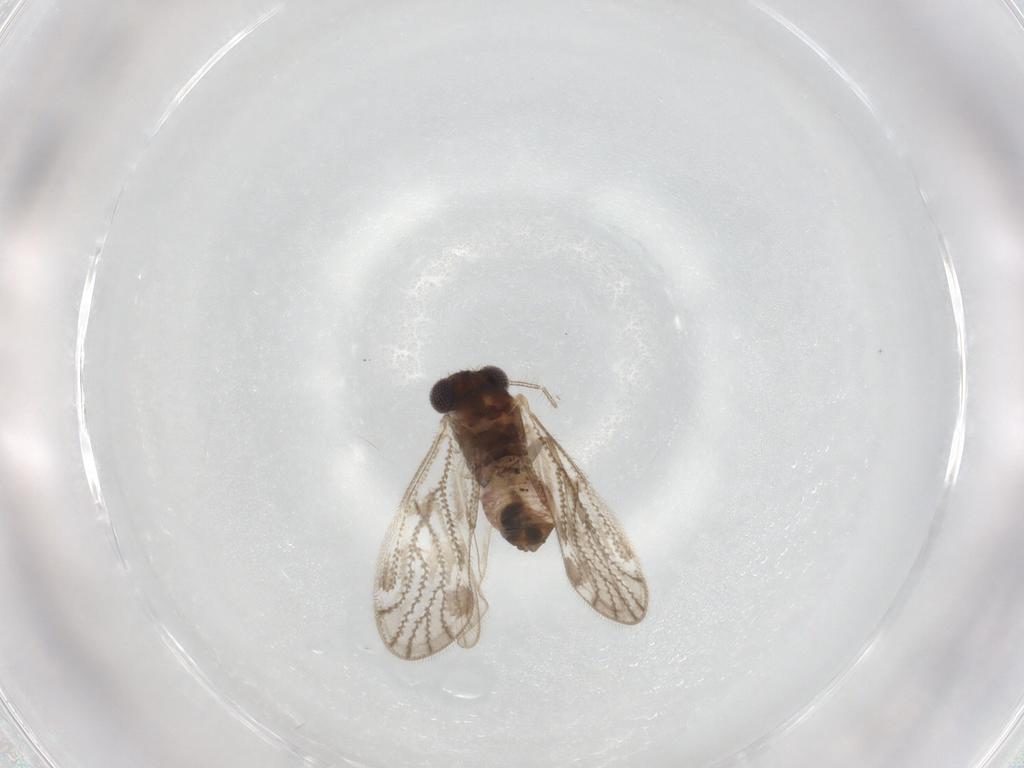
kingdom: Animalia
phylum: Arthropoda
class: Insecta
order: Psocodea
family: Pseudocaeciliidae
